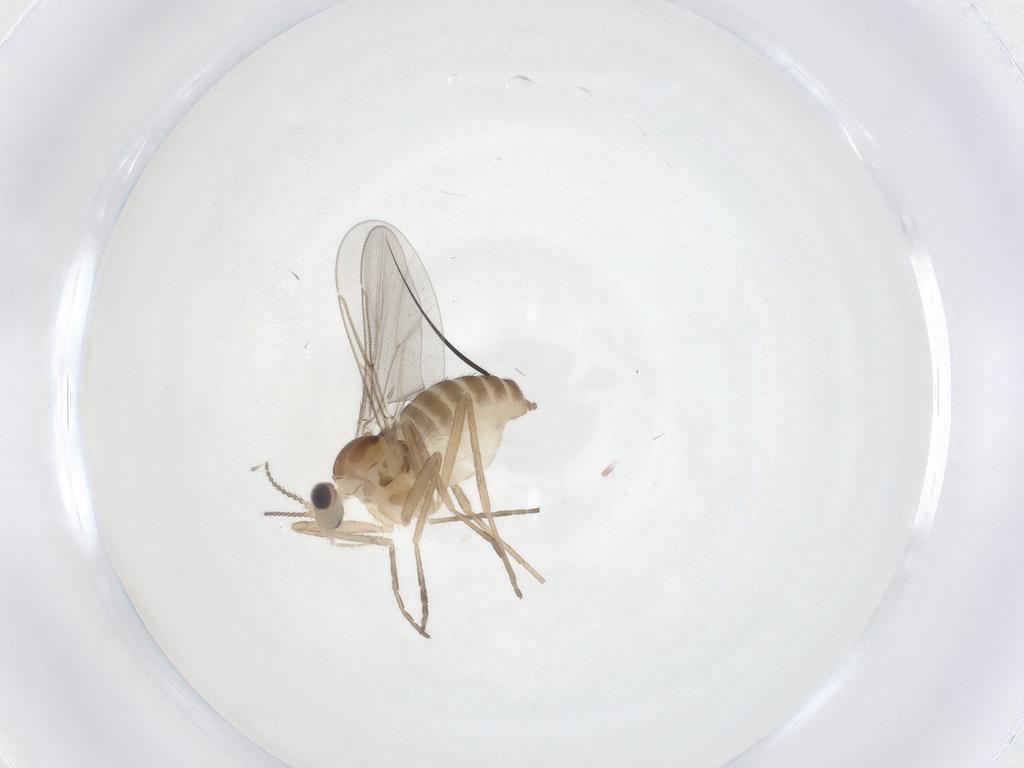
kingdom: Animalia
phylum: Arthropoda
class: Insecta
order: Diptera
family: Cecidomyiidae
